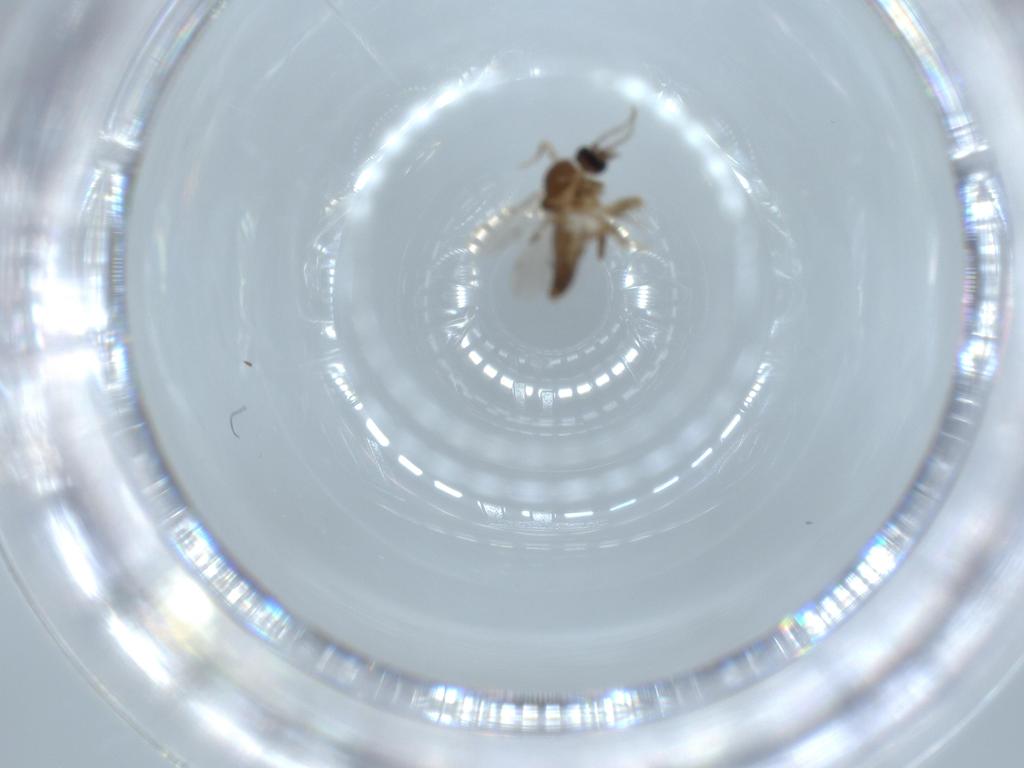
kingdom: Animalia
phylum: Arthropoda
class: Insecta
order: Diptera
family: Ceratopogonidae
